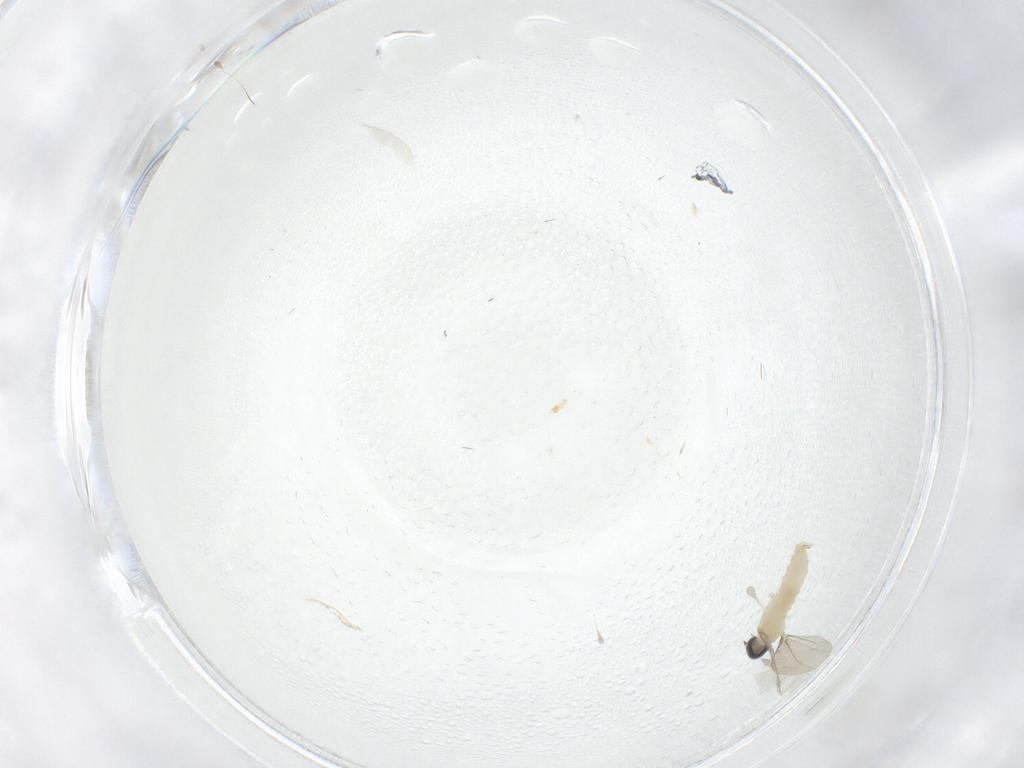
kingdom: Animalia
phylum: Arthropoda
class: Insecta
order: Diptera
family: Cecidomyiidae
